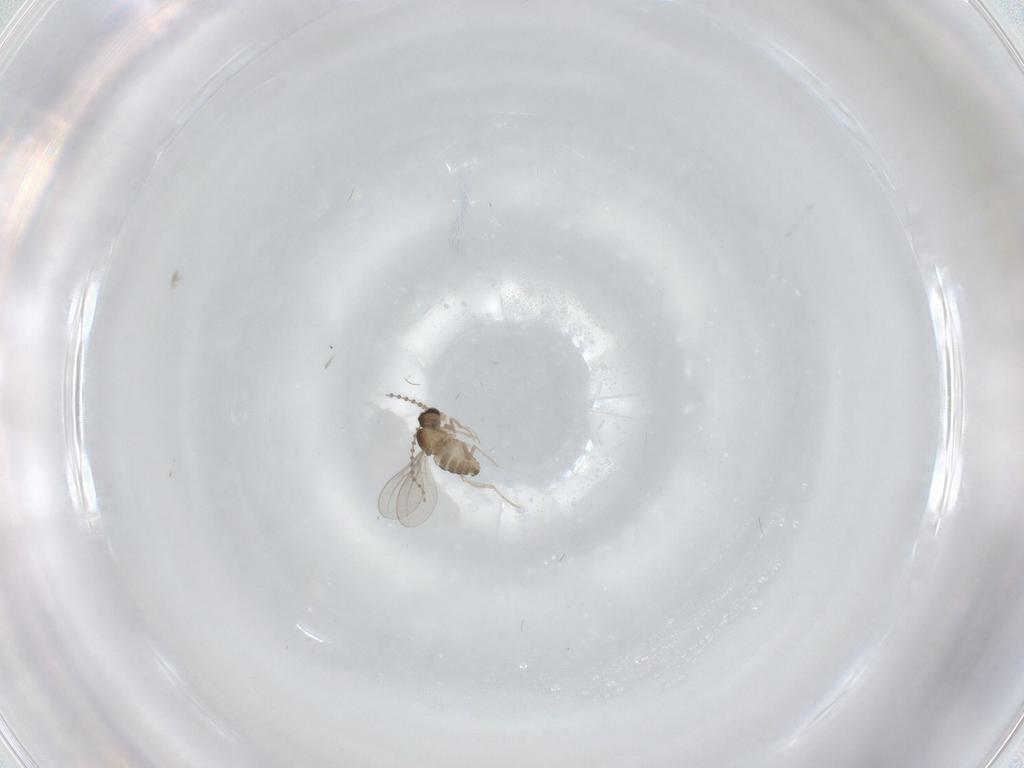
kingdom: Animalia
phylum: Arthropoda
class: Insecta
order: Diptera
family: Cecidomyiidae
